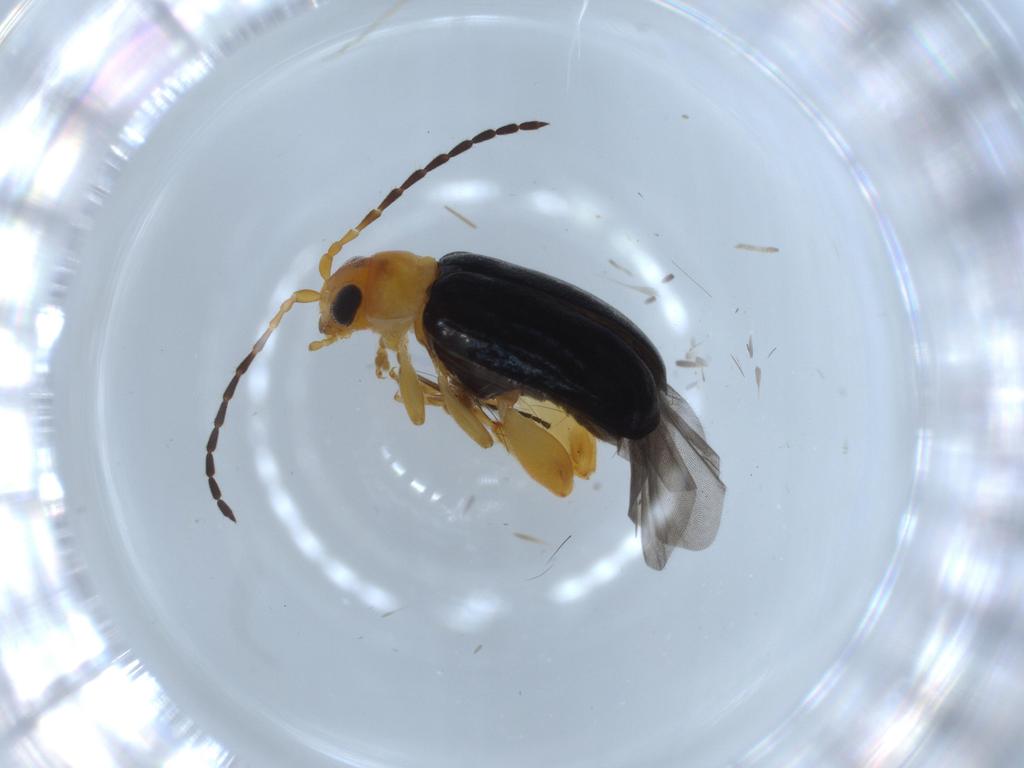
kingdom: Animalia
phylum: Arthropoda
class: Insecta
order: Coleoptera
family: Chrysomelidae
